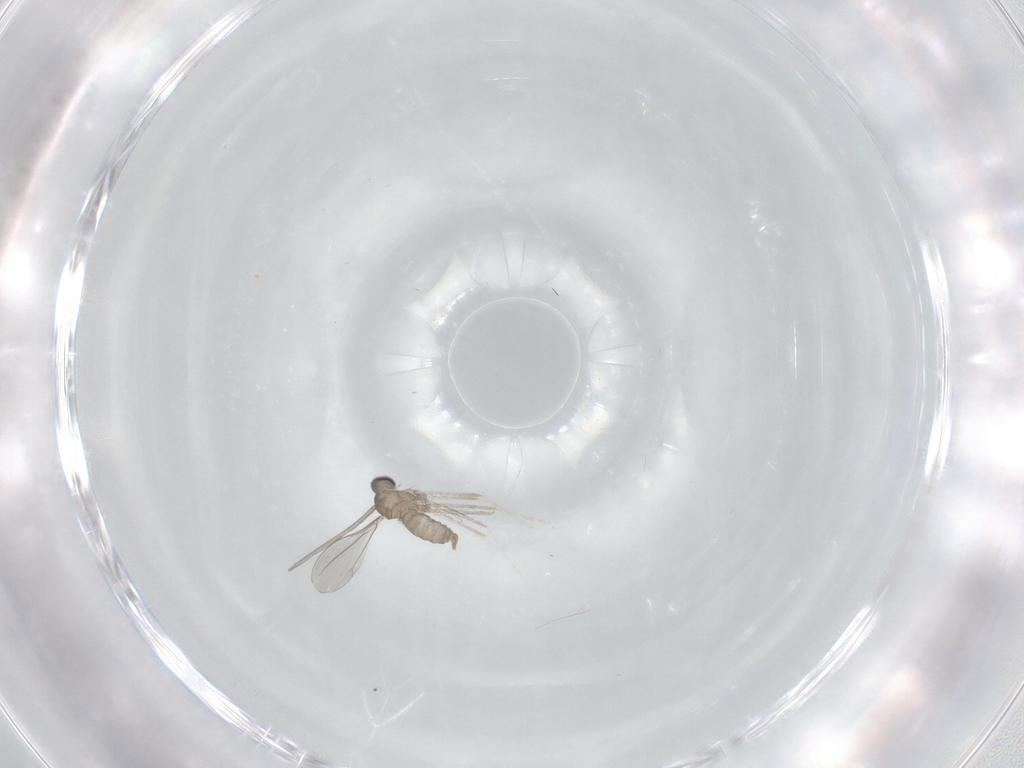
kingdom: Animalia
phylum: Arthropoda
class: Insecta
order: Diptera
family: Cecidomyiidae
